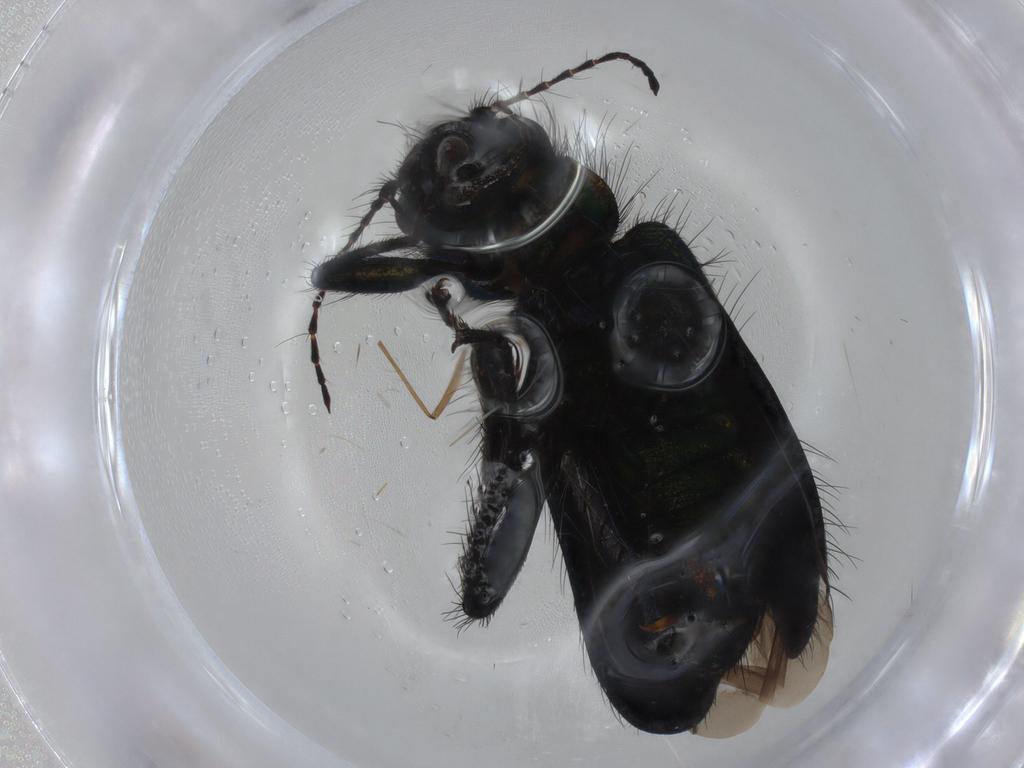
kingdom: Animalia
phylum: Arthropoda
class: Insecta
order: Coleoptera
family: Melyridae
